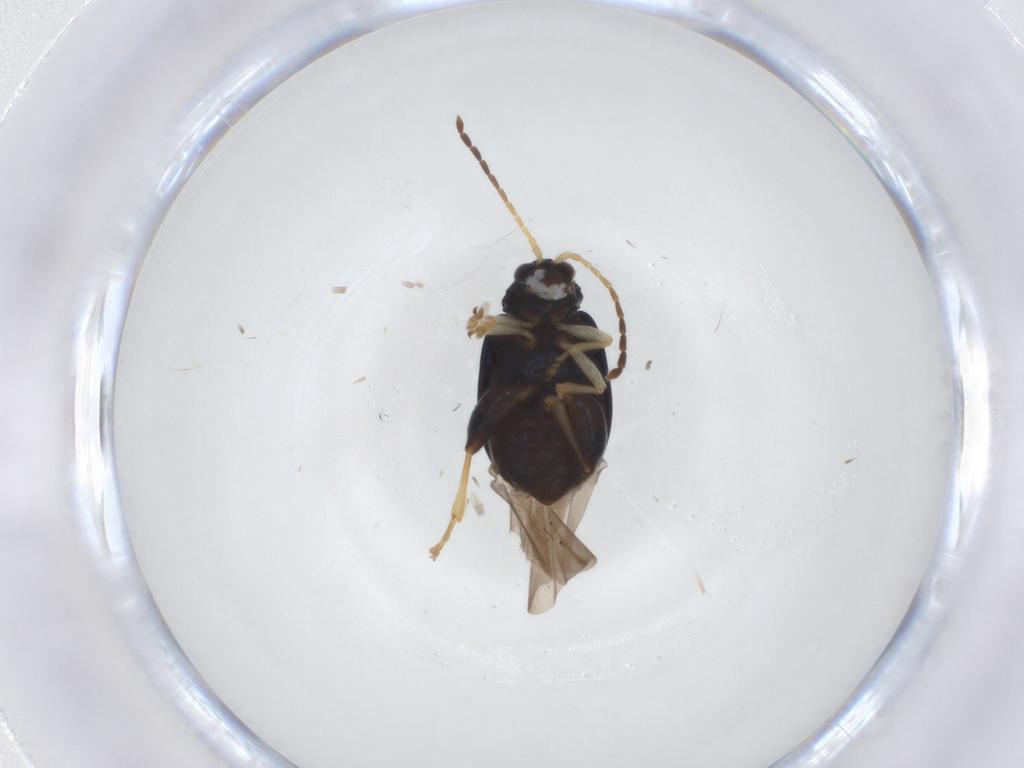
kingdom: Animalia
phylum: Arthropoda
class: Insecta
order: Coleoptera
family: Chrysomelidae
